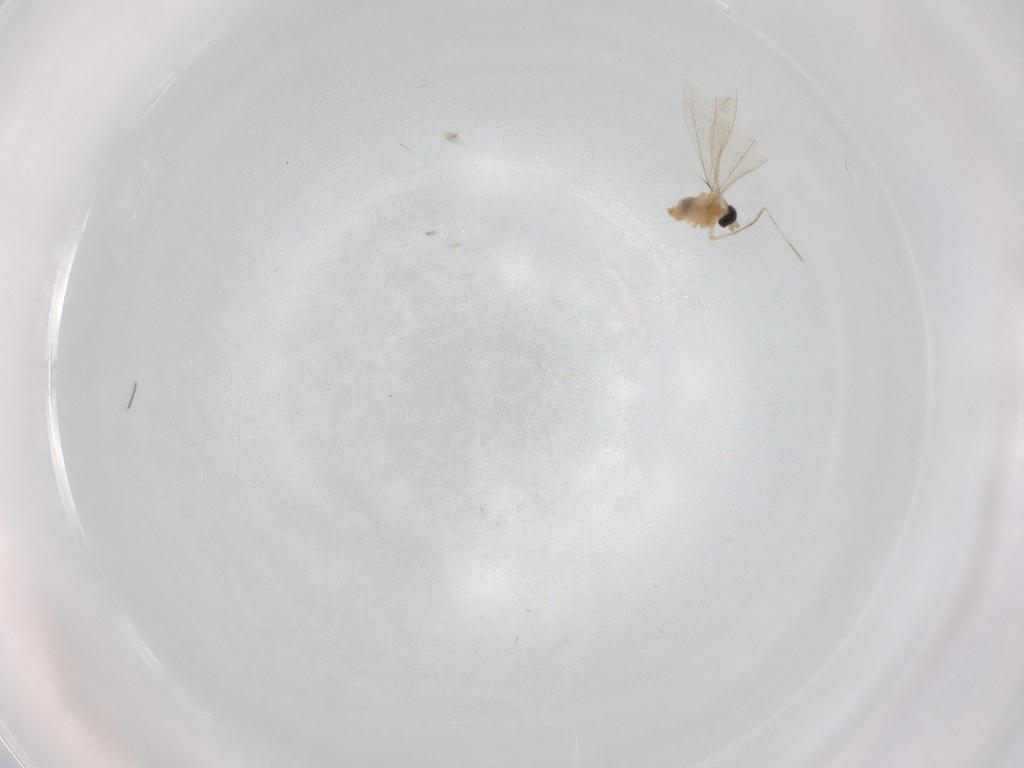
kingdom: Animalia
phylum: Arthropoda
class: Insecta
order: Diptera
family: Cecidomyiidae
